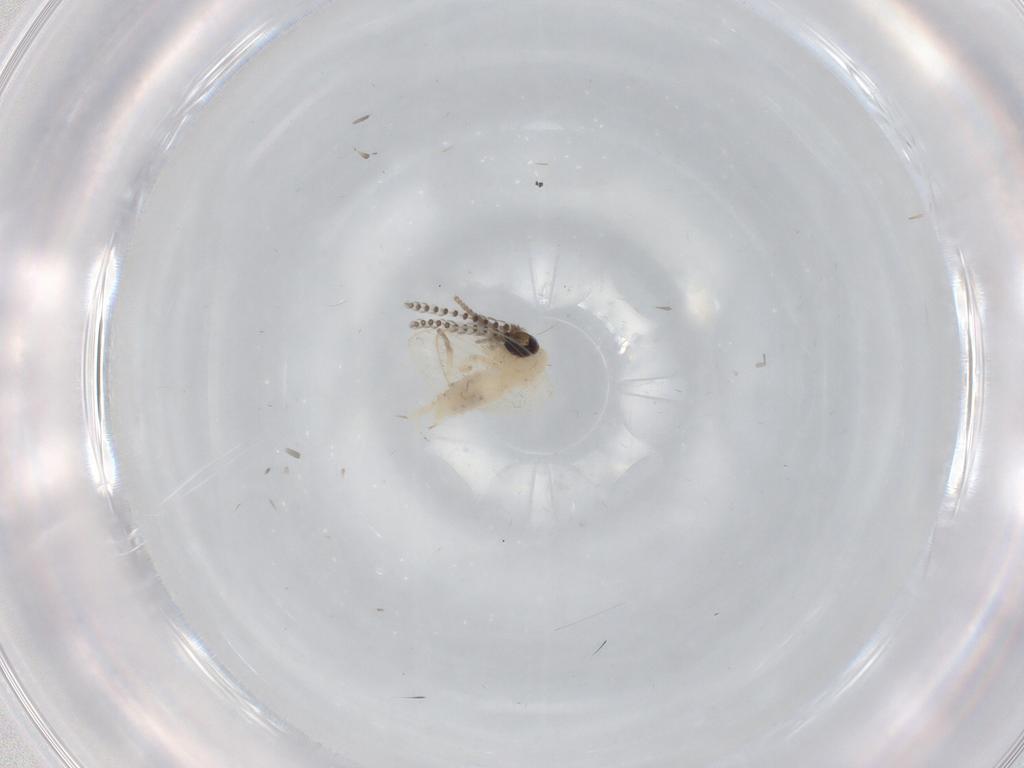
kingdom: Animalia
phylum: Arthropoda
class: Insecta
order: Diptera
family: Psychodidae
